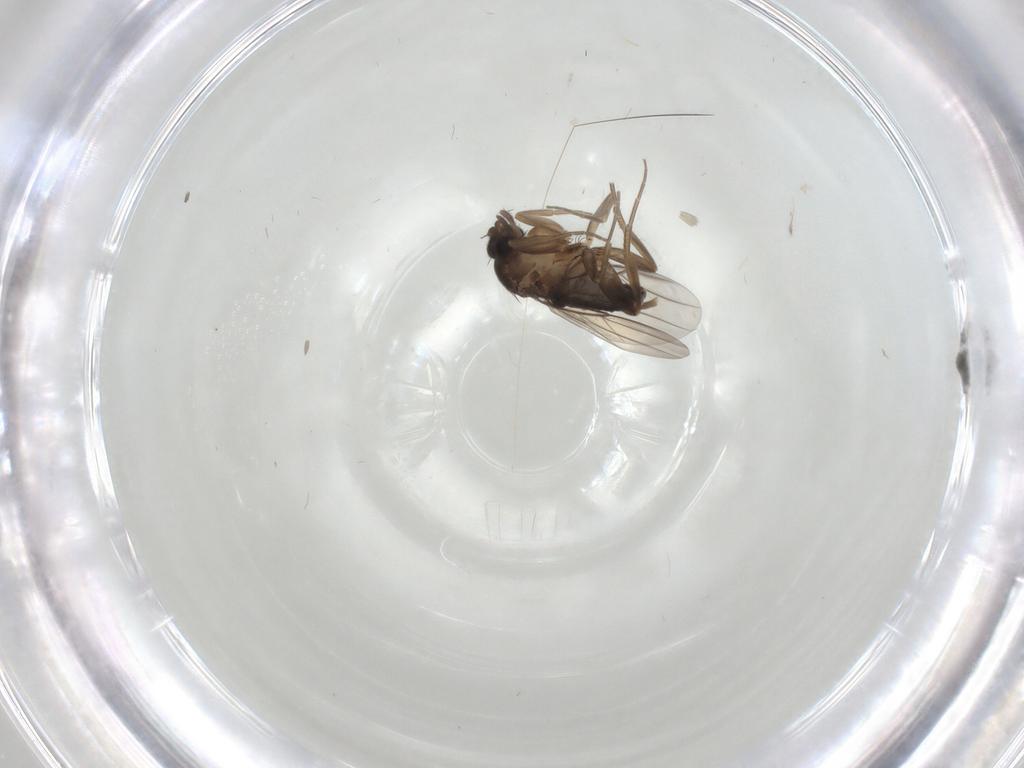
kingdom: Animalia
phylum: Arthropoda
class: Insecta
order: Diptera
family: Phoridae
